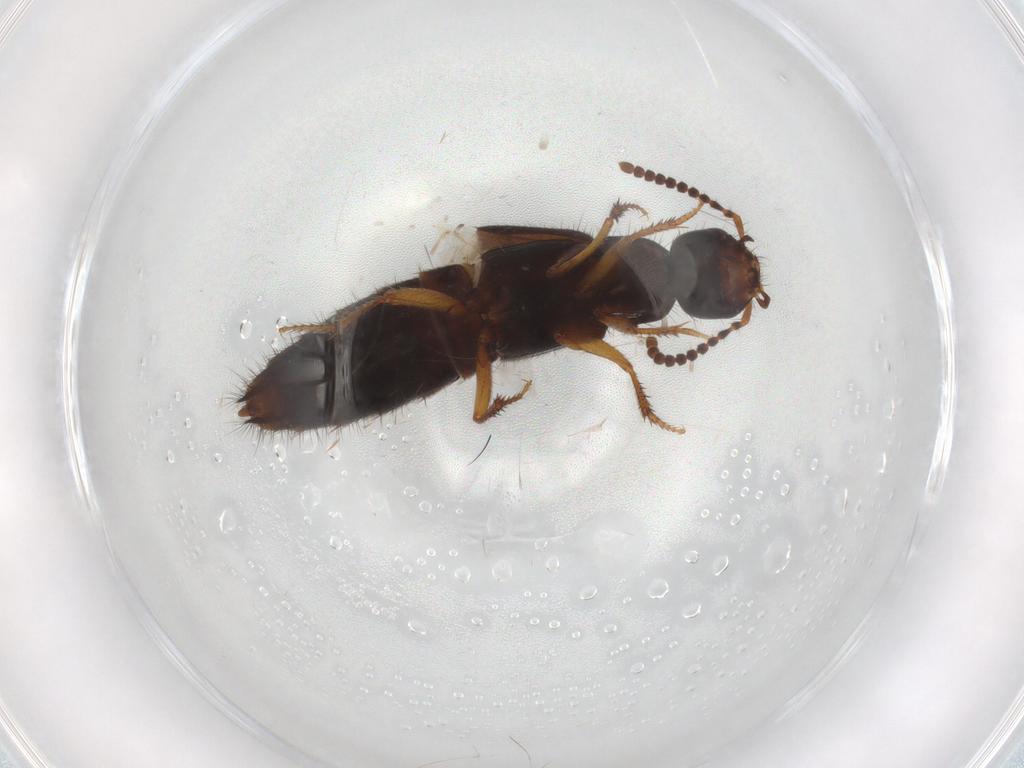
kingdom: Animalia
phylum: Arthropoda
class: Insecta
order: Coleoptera
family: Staphylinidae
